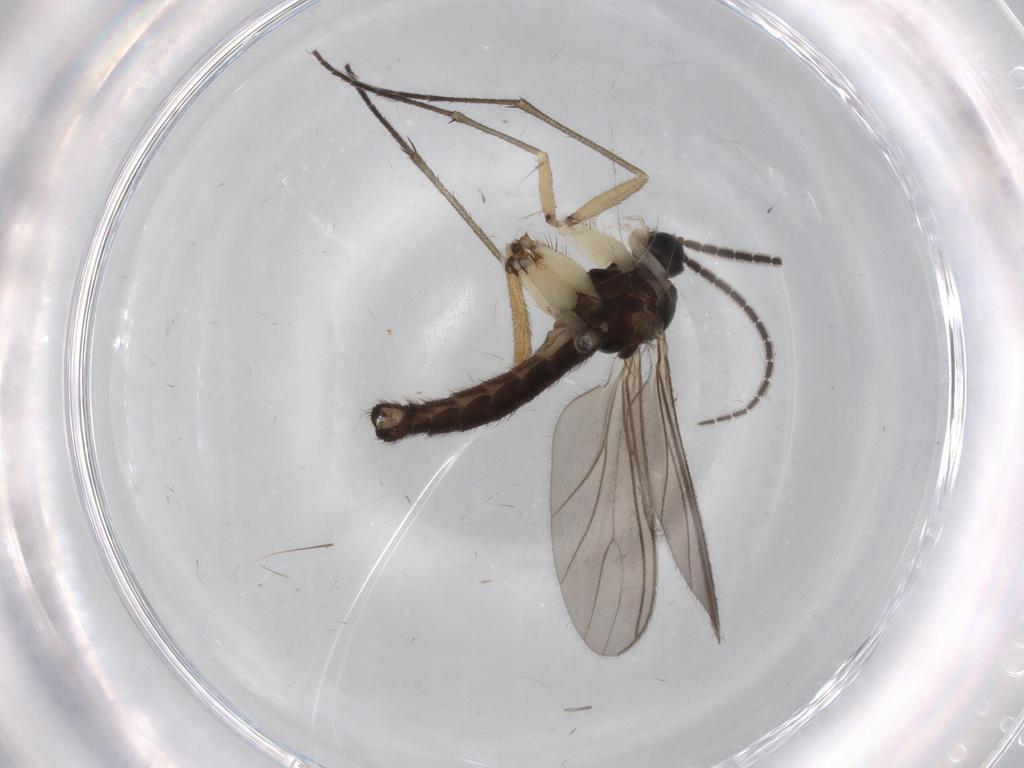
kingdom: Animalia
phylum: Arthropoda
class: Insecta
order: Diptera
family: Sciaridae
